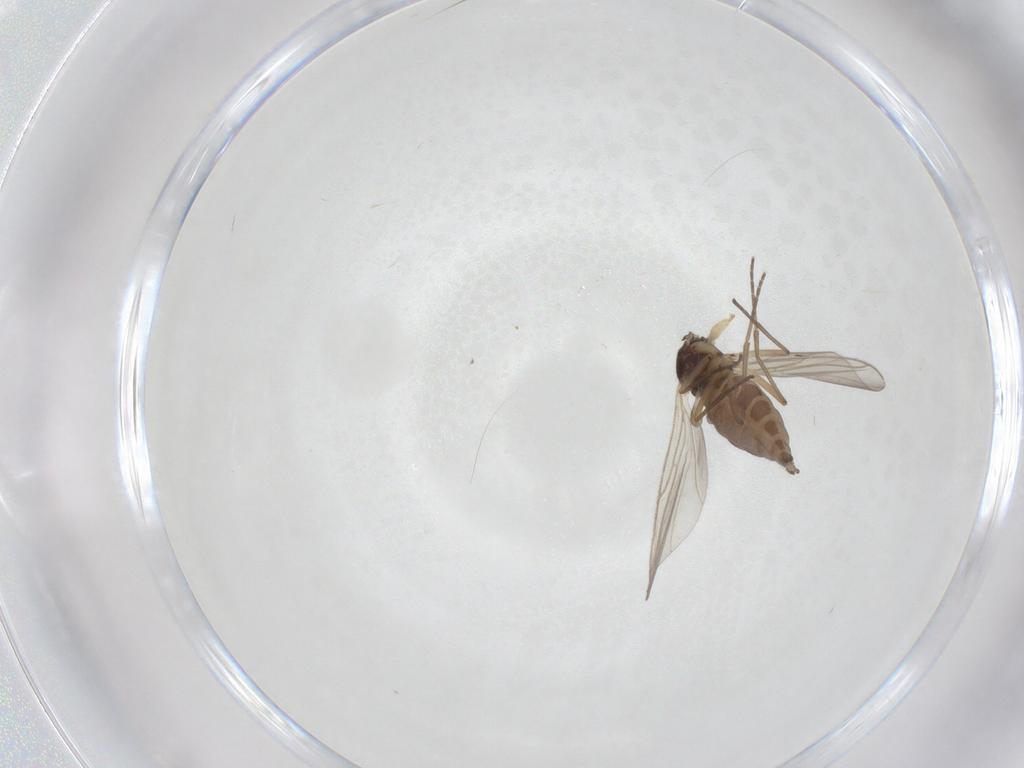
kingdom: Animalia
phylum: Arthropoda
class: Insecta
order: Diptera
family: Sciaridae
